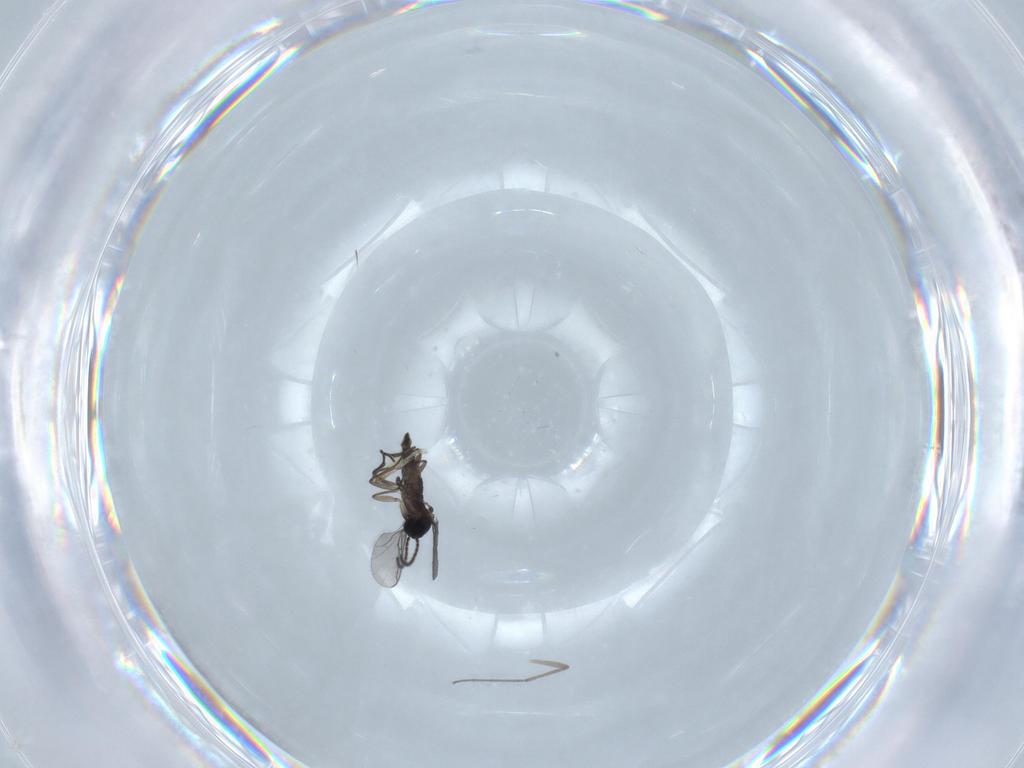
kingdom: Animalia
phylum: Arthropoda
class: Insecta
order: Diptera
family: Sciaridae
